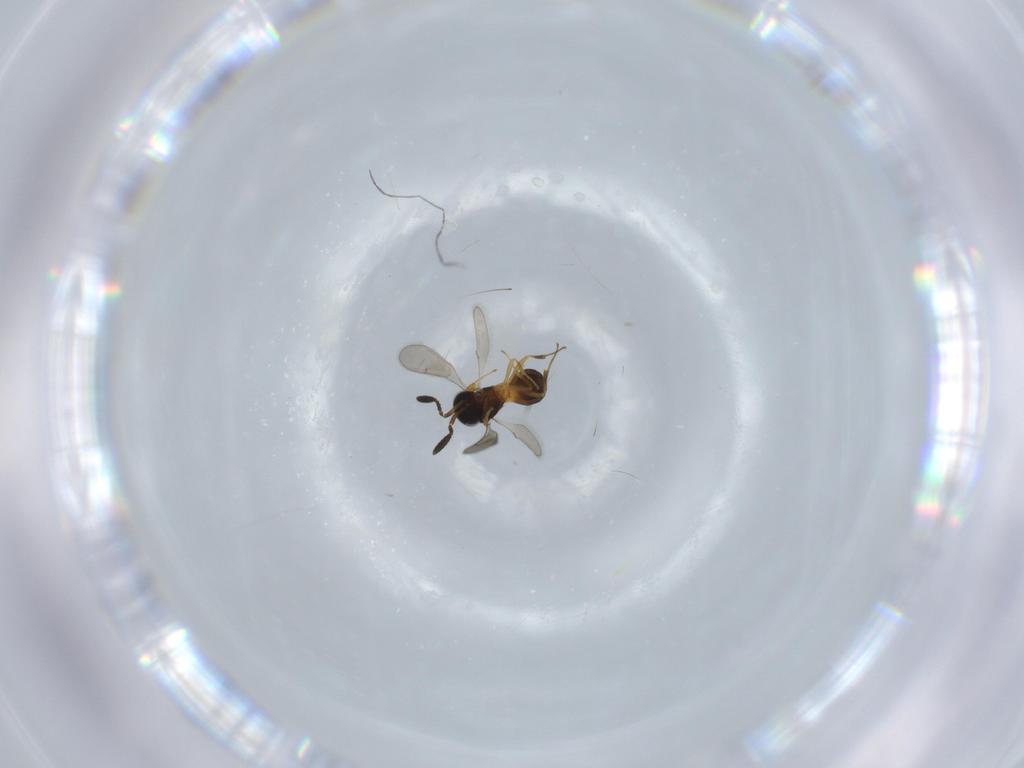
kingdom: Animalia
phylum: Arthropoda
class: Insecta
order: Hymenoptera
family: Scelionidae
